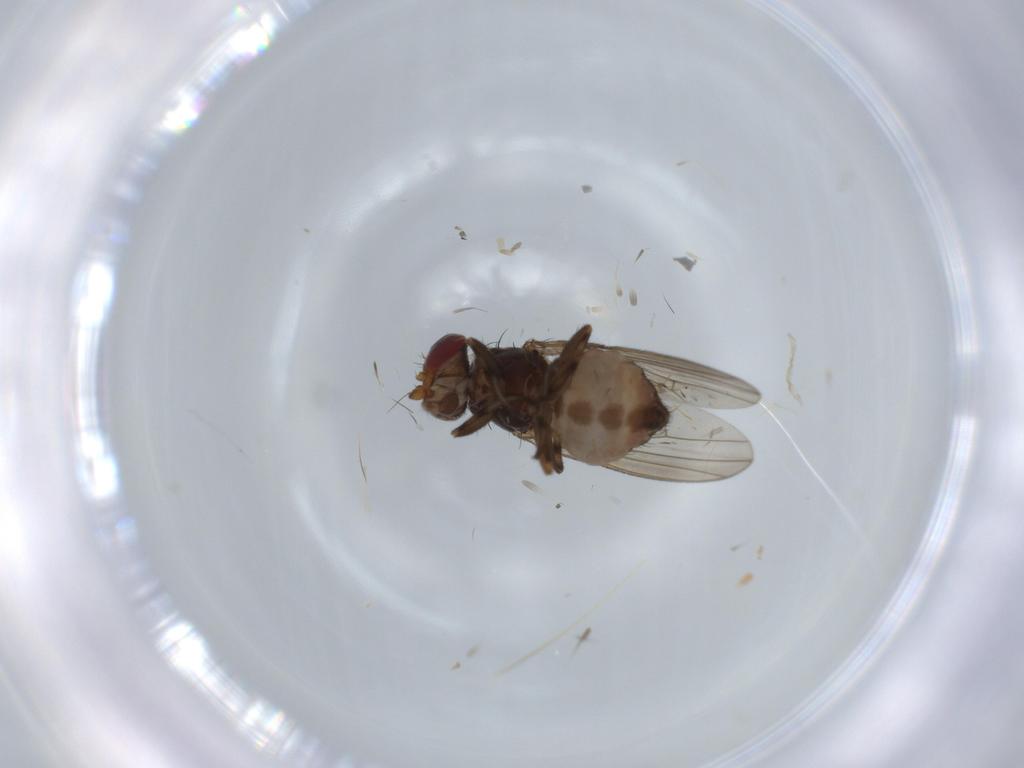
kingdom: Animalia
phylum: Arthropoda
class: Insecta
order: Diptera
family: Heleomyzidae
